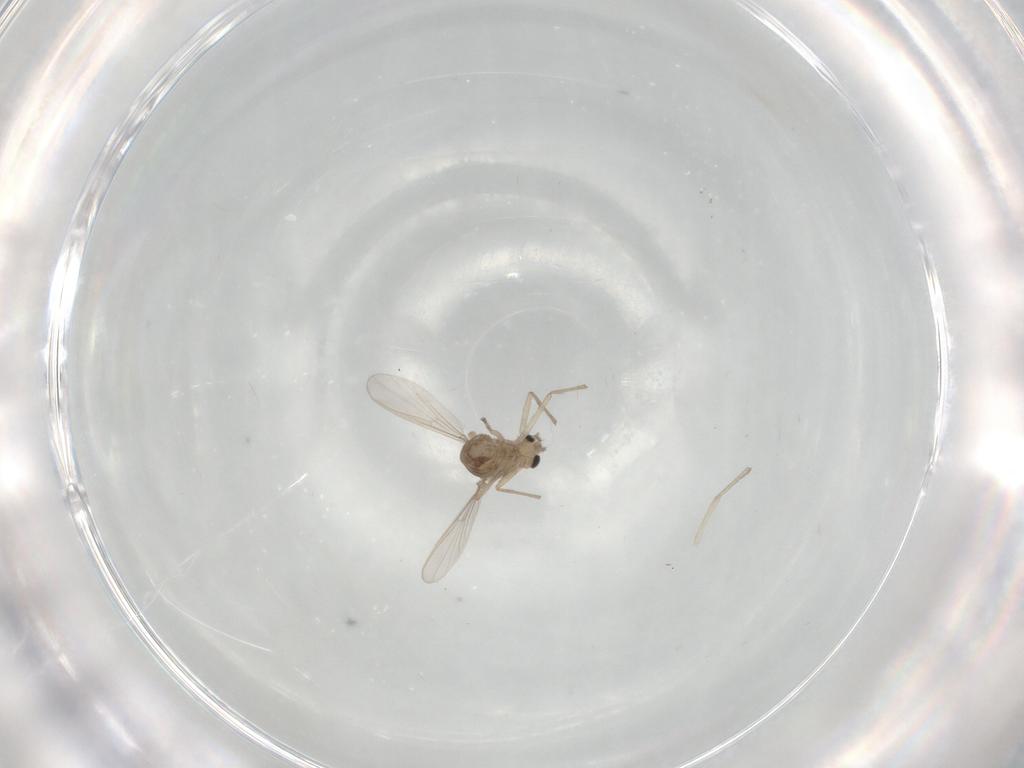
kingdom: Animalia
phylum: Arthropoda
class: Insecta
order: Diptera
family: Chironomidae
